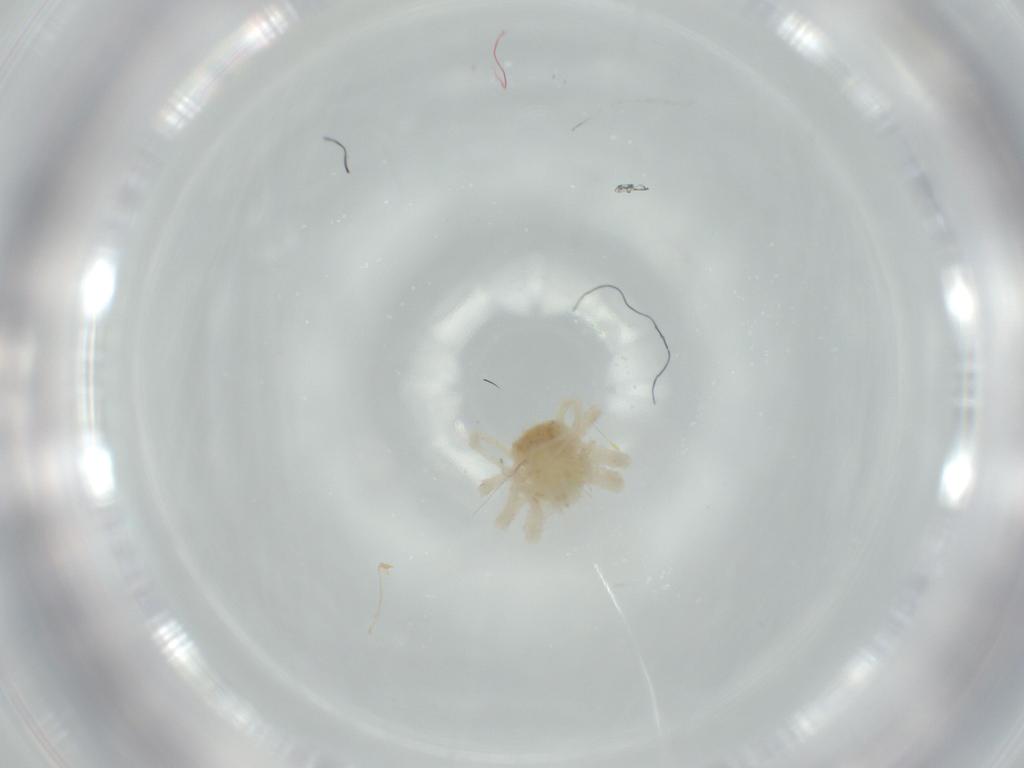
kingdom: Animalia
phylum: Arthropoda
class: Arachnida
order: Trombidiformes
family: Anystidae
